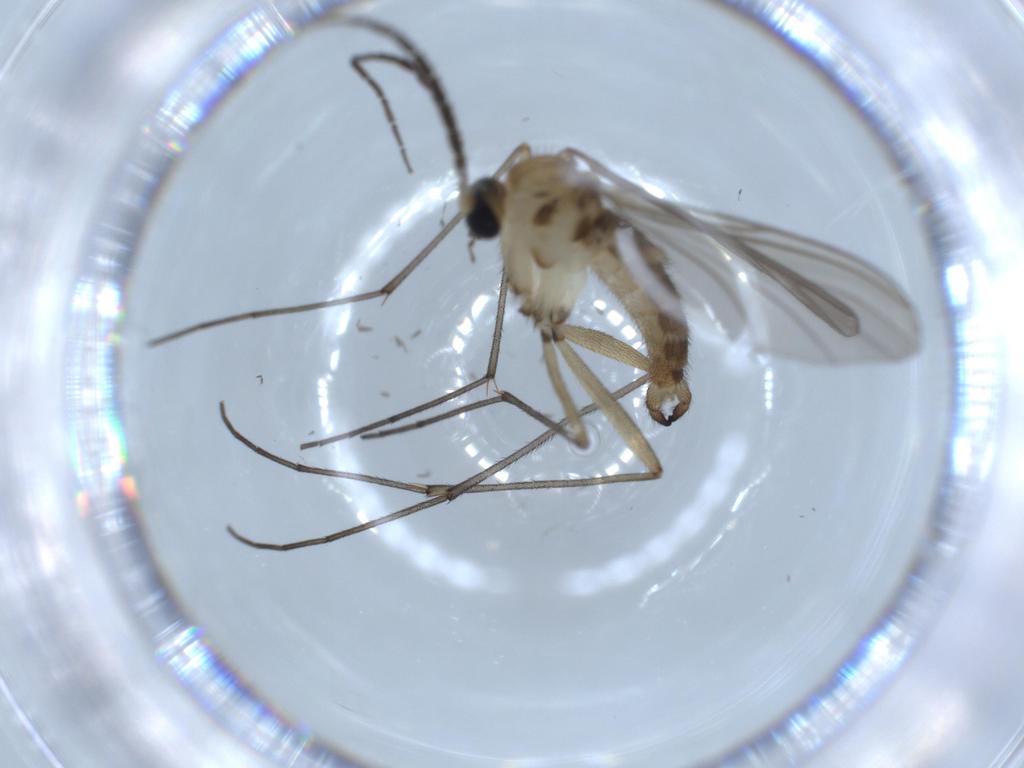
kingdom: Animalia
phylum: Arthropoda
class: Insecta
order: Diptera
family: Sciaridae
